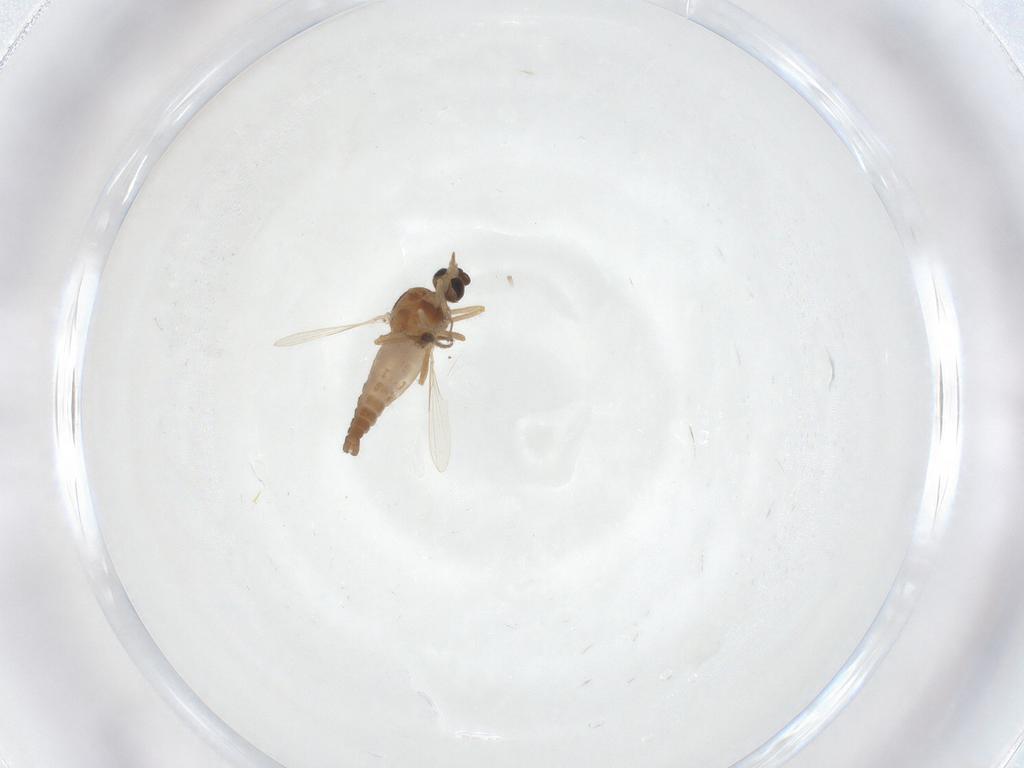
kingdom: Animalia
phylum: Arthropoda
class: Insecta
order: Diptera
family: Ceratopogonidae
